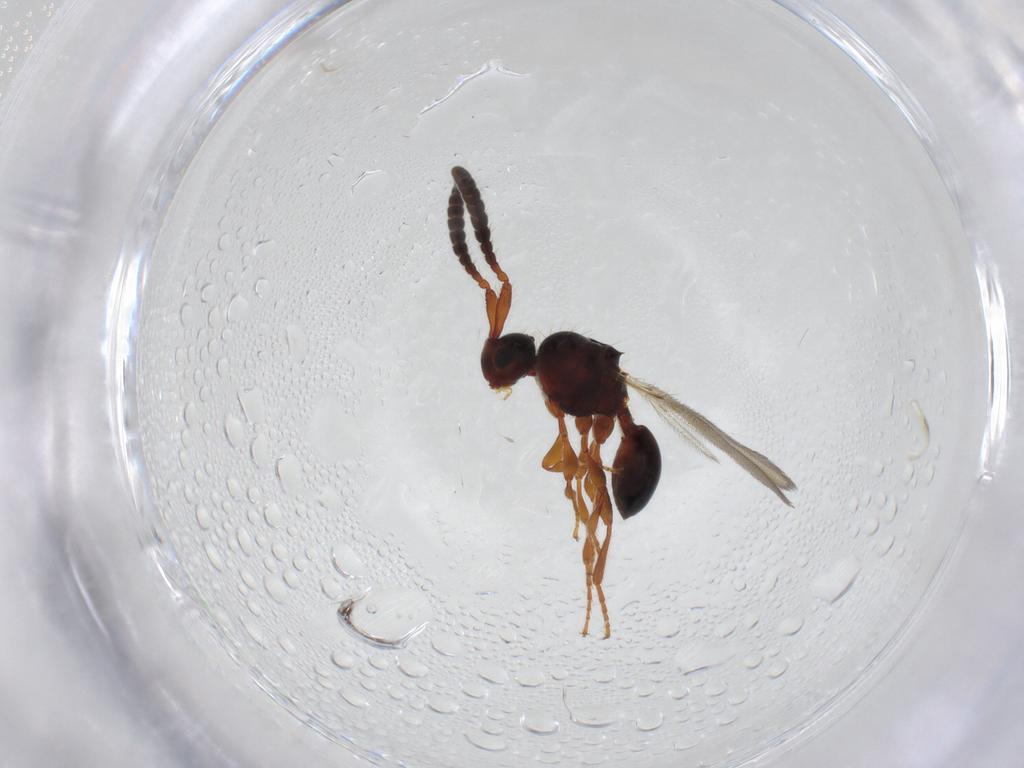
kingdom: Animalia
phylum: Arthropoda
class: Insecta
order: Hymenoptera
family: Diapriidae
